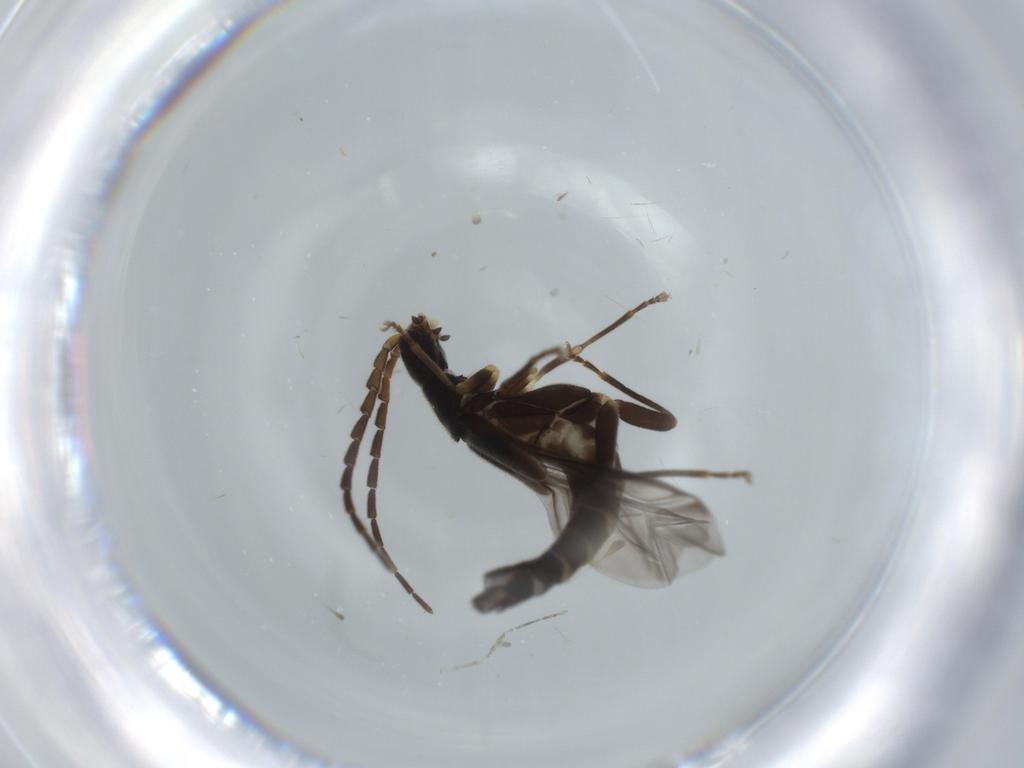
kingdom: Animalia
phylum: Arthropoda
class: Insecta
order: Coleoptera
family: Cantharidae
